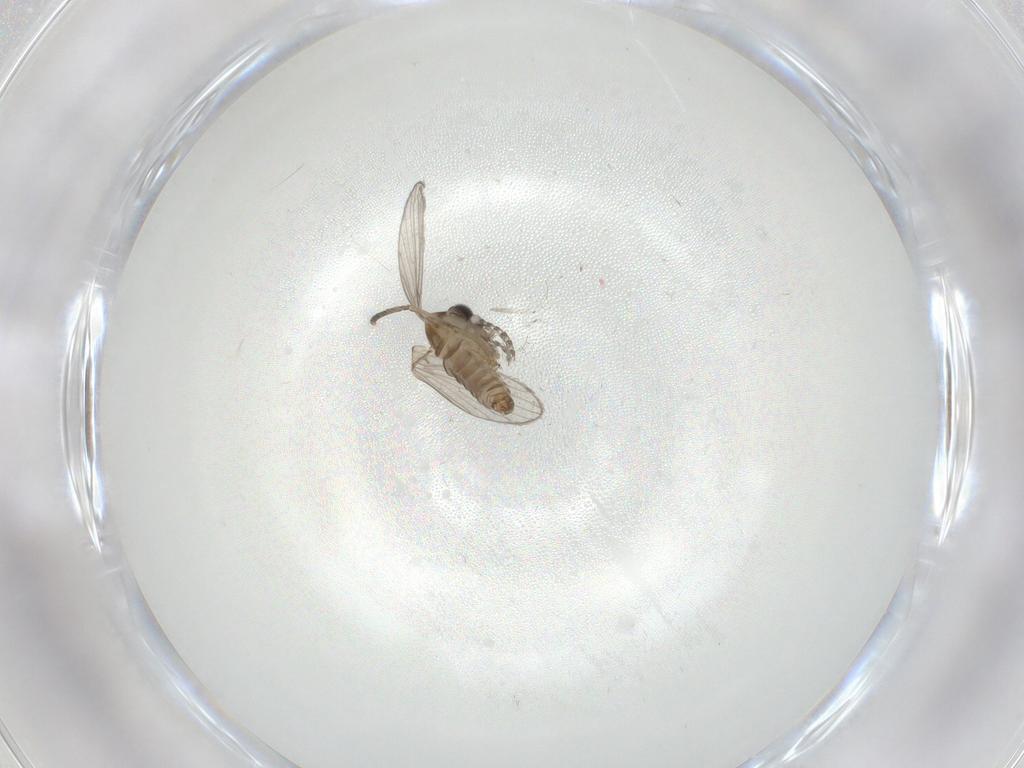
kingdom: Animalia
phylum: Arthropoda
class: Insecta
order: Diptera
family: Psychodidae
